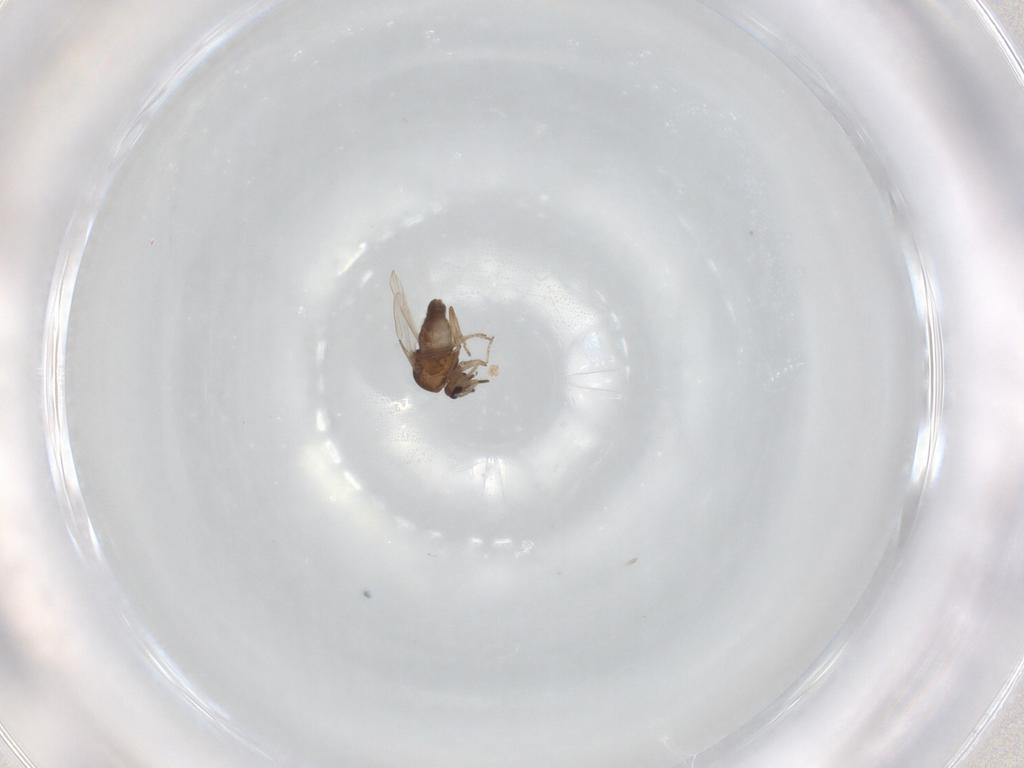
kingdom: Animalia
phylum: Arthropoda
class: Insecta
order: Diptera
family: Ceratopogonidae
